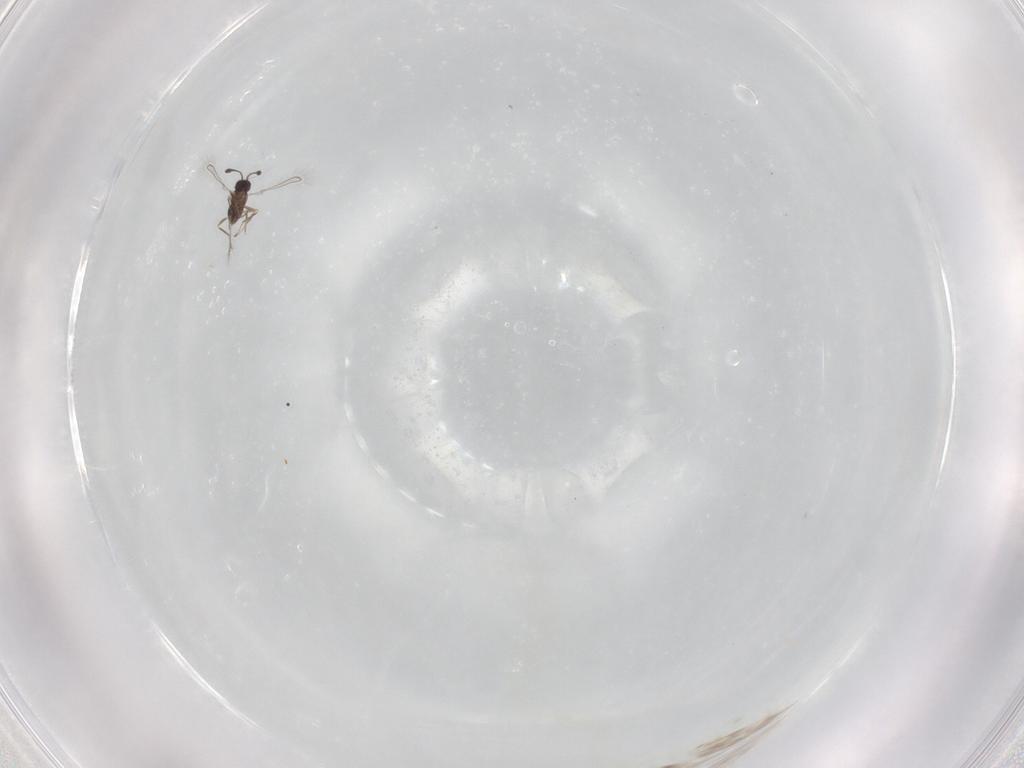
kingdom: Animalia
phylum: Arthropoda
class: Insecta
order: Hymenoptera
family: Mymaridae
